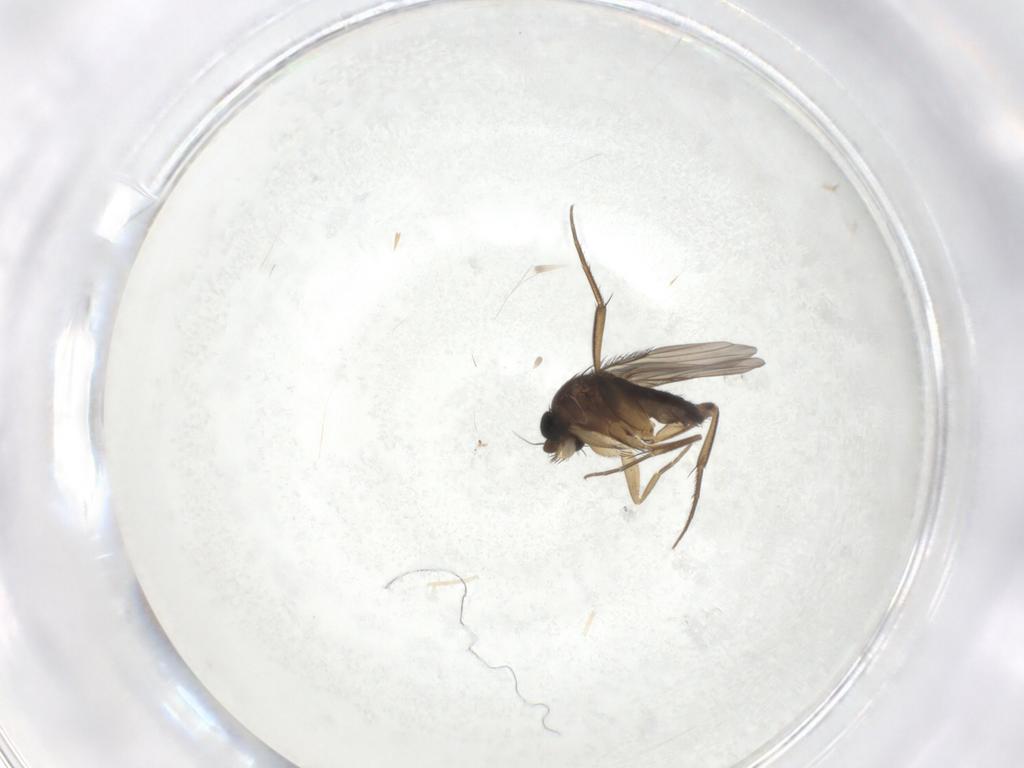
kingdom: Animalia
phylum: Arthropoda
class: Insecta
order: Diptera
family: Phoridae
